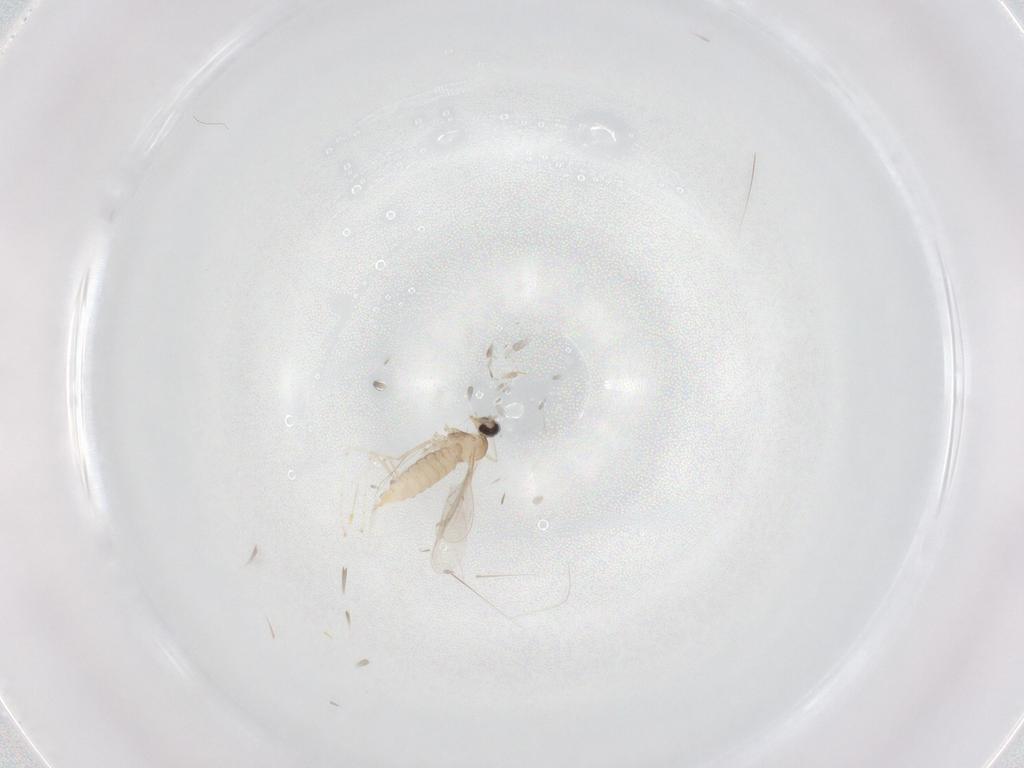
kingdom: Animalia
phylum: Arthropoda
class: Insecta
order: Diptera
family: Cecidomyiidae
